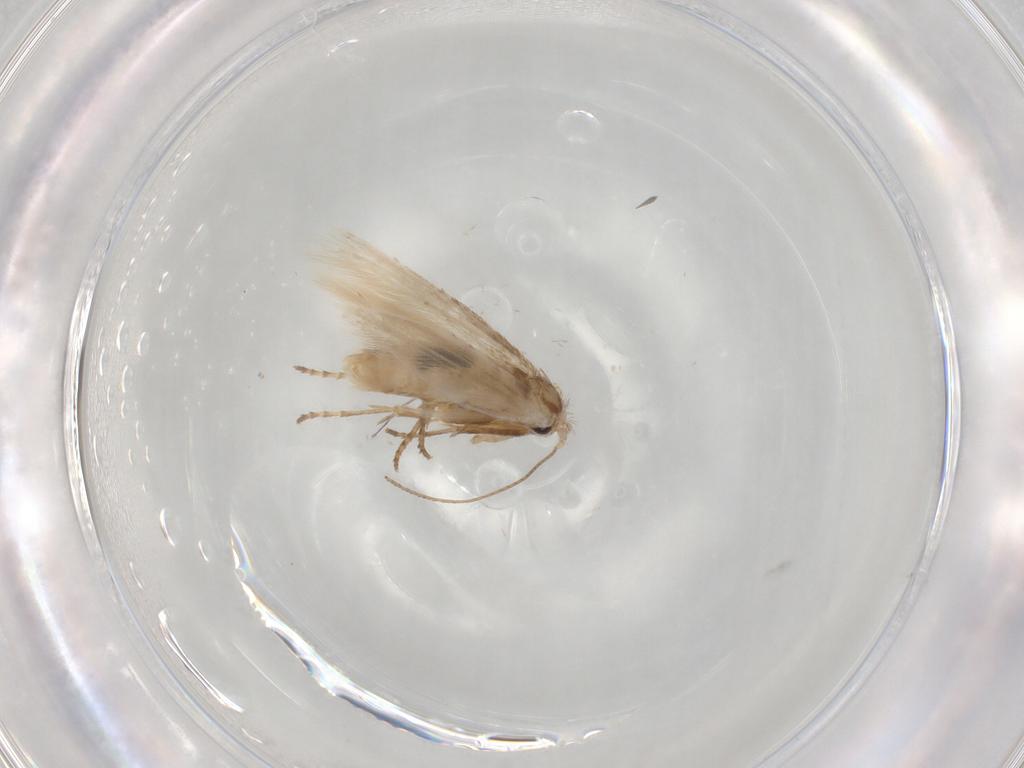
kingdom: Animalia
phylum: Arthropoda
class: Insecta
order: Lepidoptera
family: Bucculatricidae
